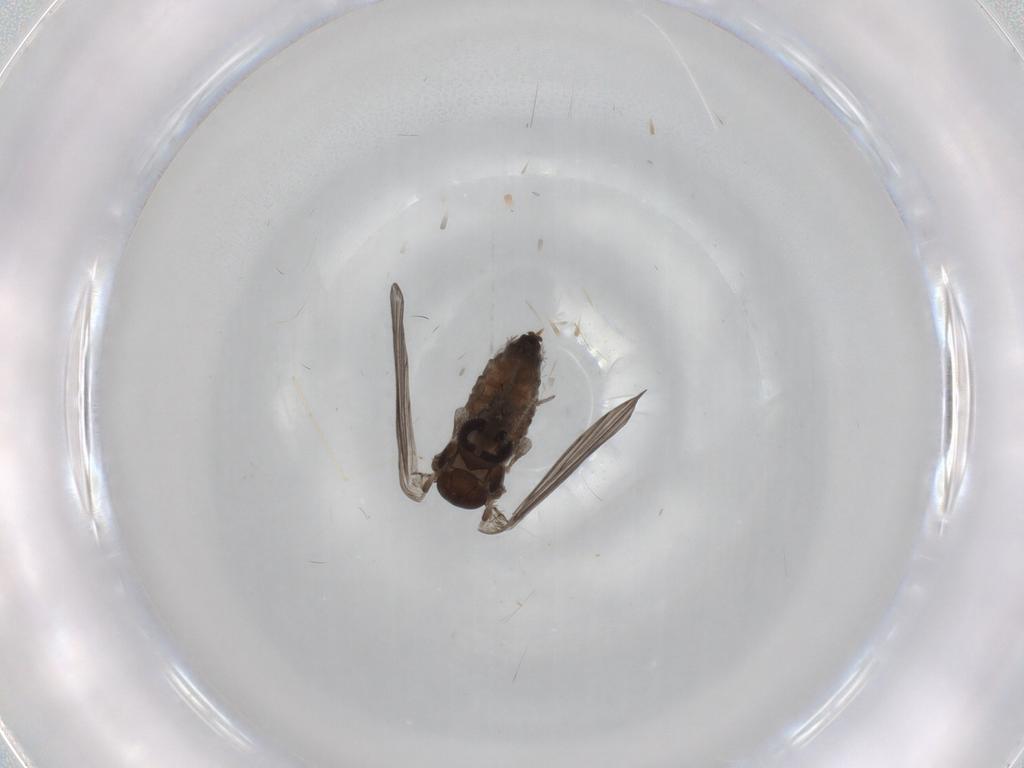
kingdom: Animalia
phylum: Arthropoda
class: Insecta
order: Diptera
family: Psychodidae
